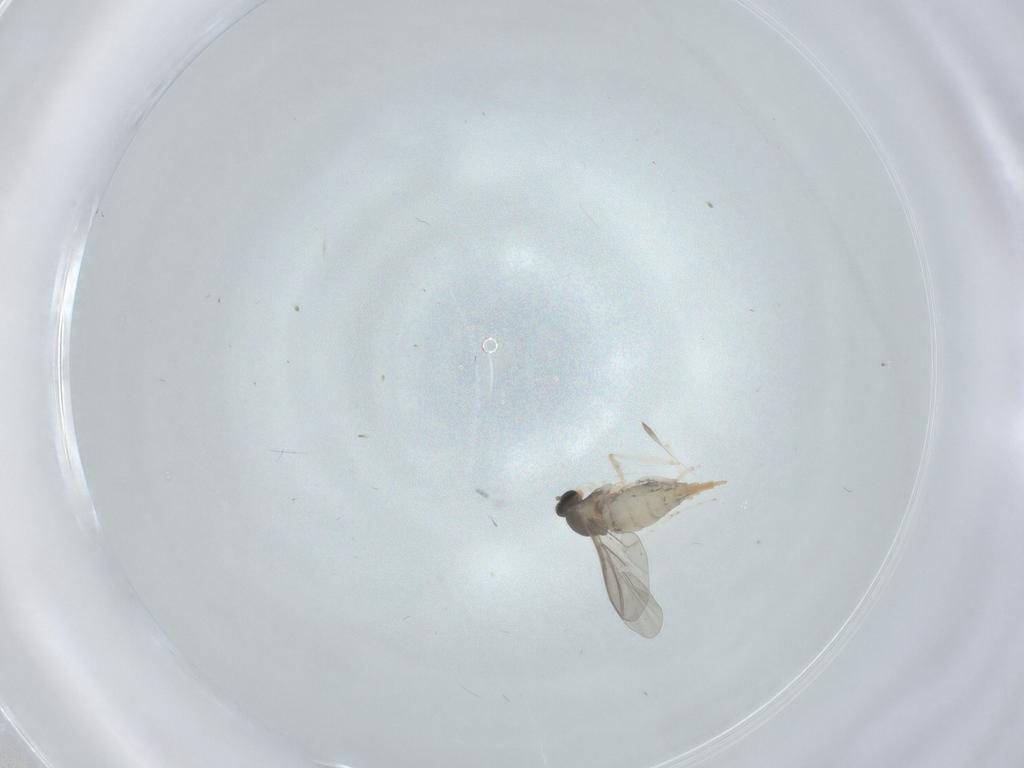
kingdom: Animalia
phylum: Arthropoda
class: Insecta
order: Diptera
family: Cecidomyiidae
